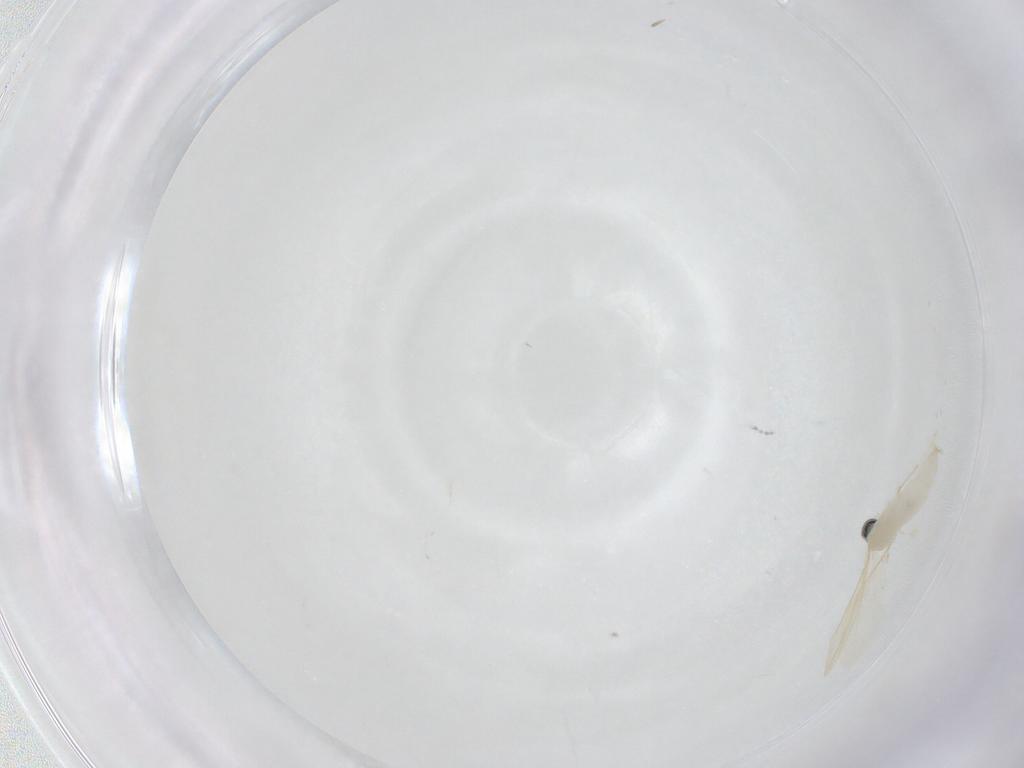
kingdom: Animalia
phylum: Arthropoda
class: Insecta
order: Diptera
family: Cecidomyiidae
